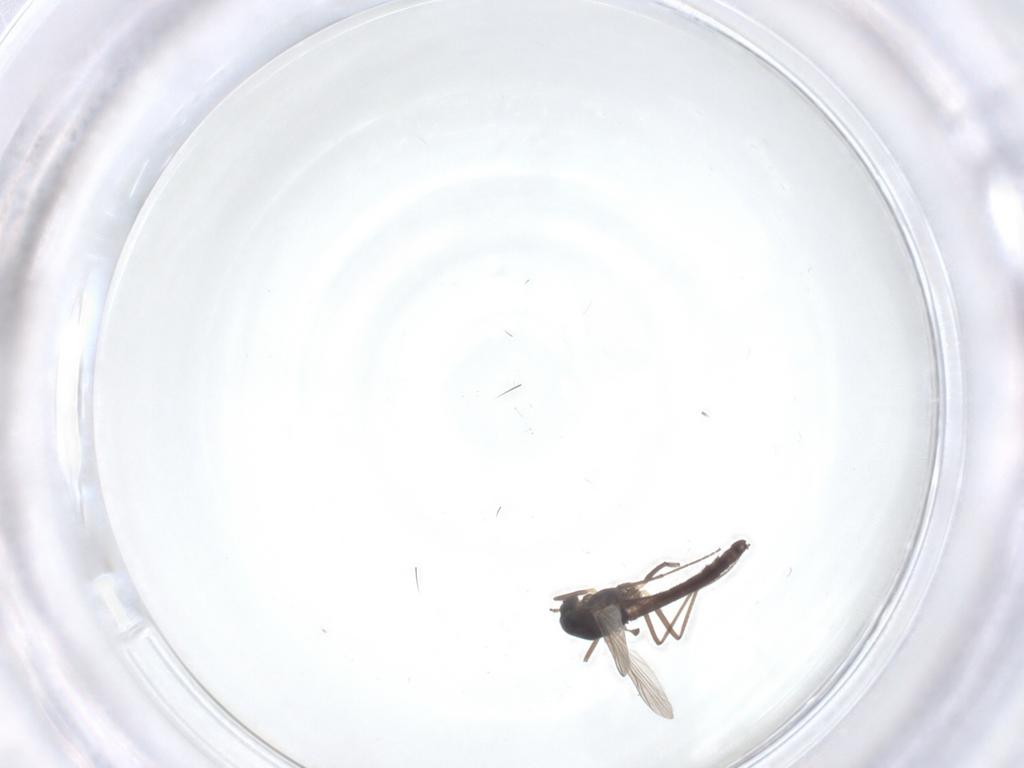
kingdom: Animalia
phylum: Arthropoda
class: Insecta
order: Diptera
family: Chironomidae
